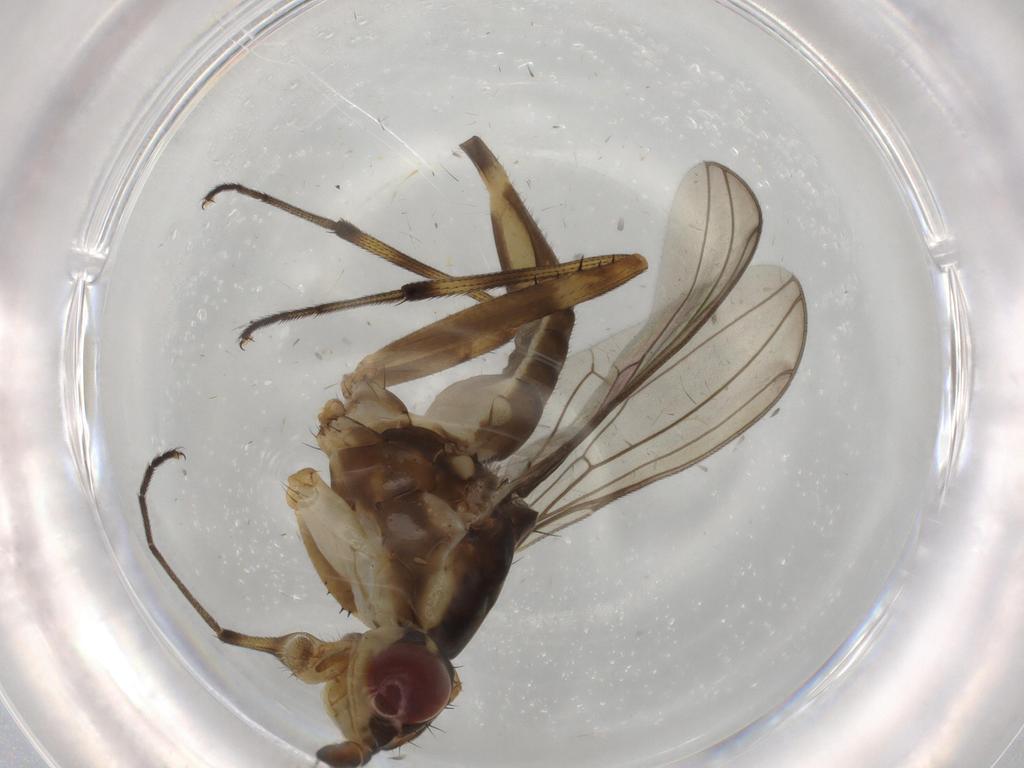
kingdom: Animalia
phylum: Arthropoda
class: Insecta
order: Diptera
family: Neriidae
